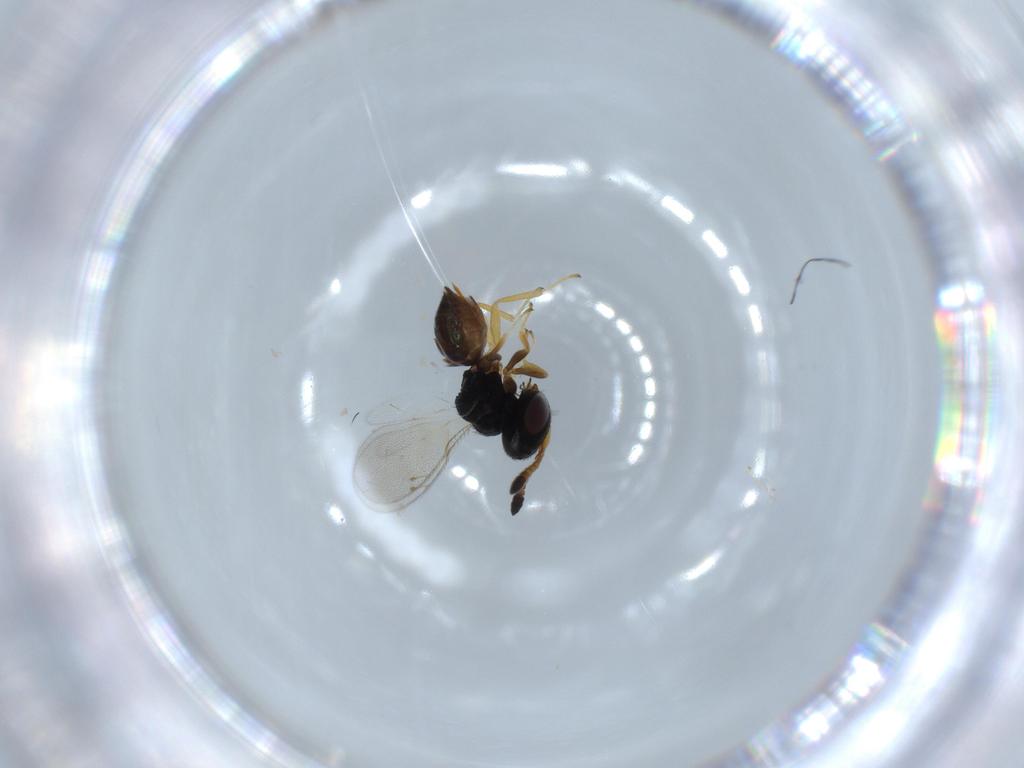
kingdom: Animalia
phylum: Arthropoda
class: Insecta
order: Hymenoptera
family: Pteromalidae
